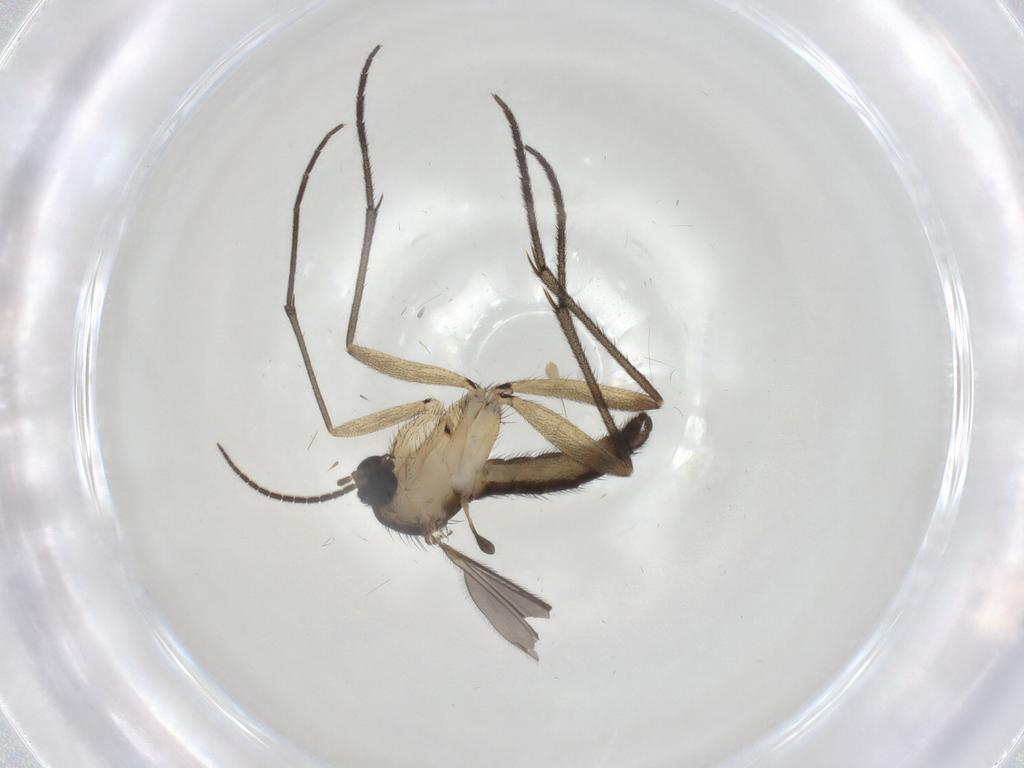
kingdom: Animalia
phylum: Arthropoda
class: Insecta
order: Diptera
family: Sciaridae
